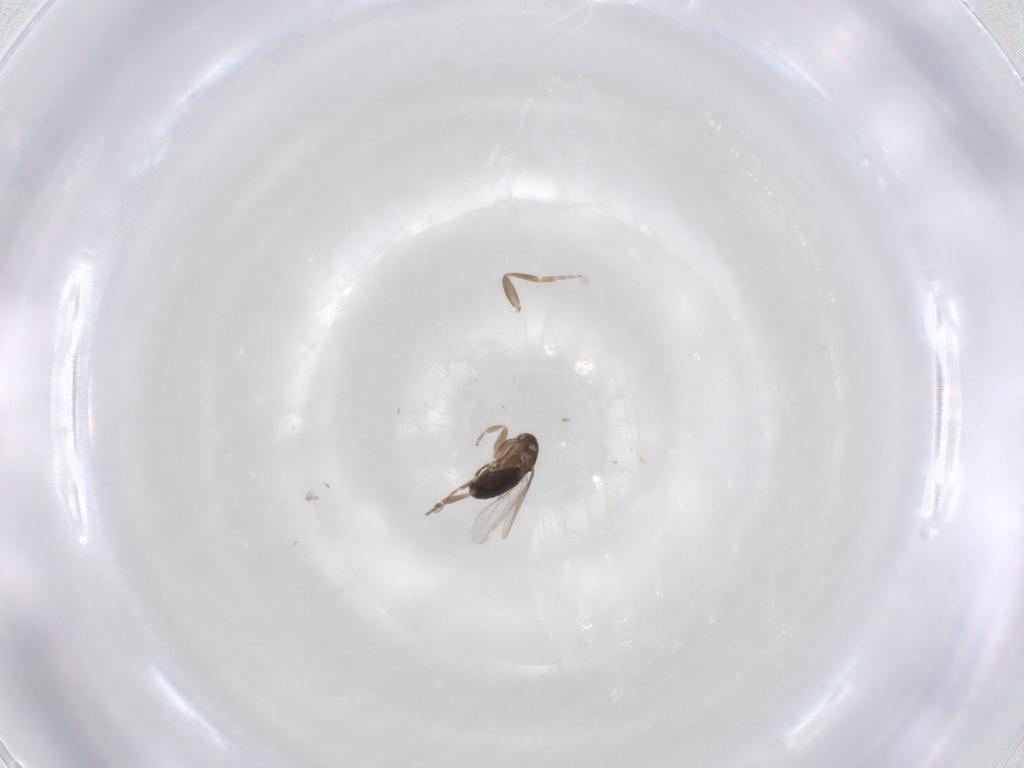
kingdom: Animalia
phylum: Arthropoda
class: Insecta
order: Diptera
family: Phoridae
